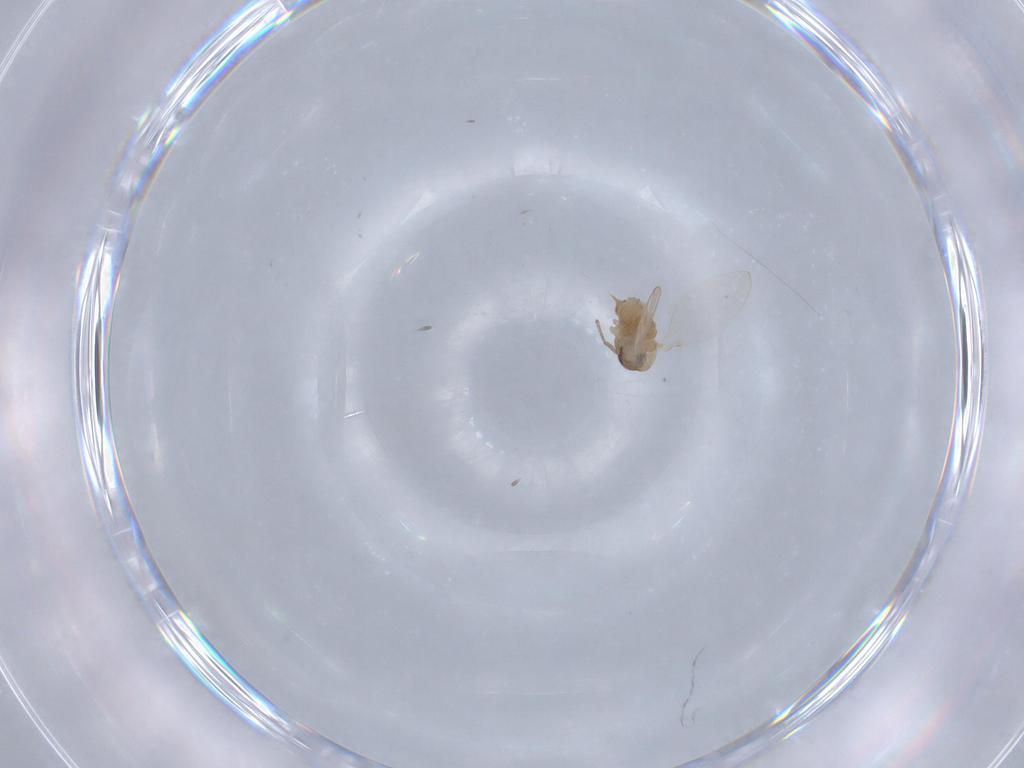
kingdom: Animalia
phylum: Arthropoda
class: Insecta
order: Diptera
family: Psychodidae
